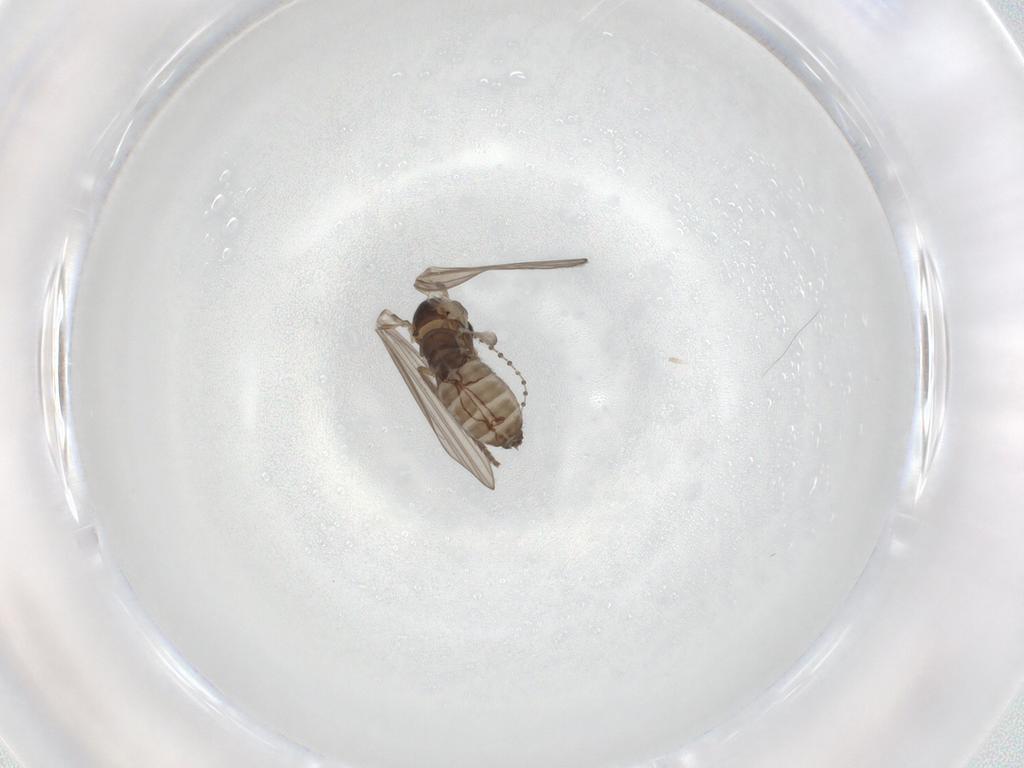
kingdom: Animalia
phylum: Arthropoda
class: Insecta
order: Diptera
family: Psychodidae
